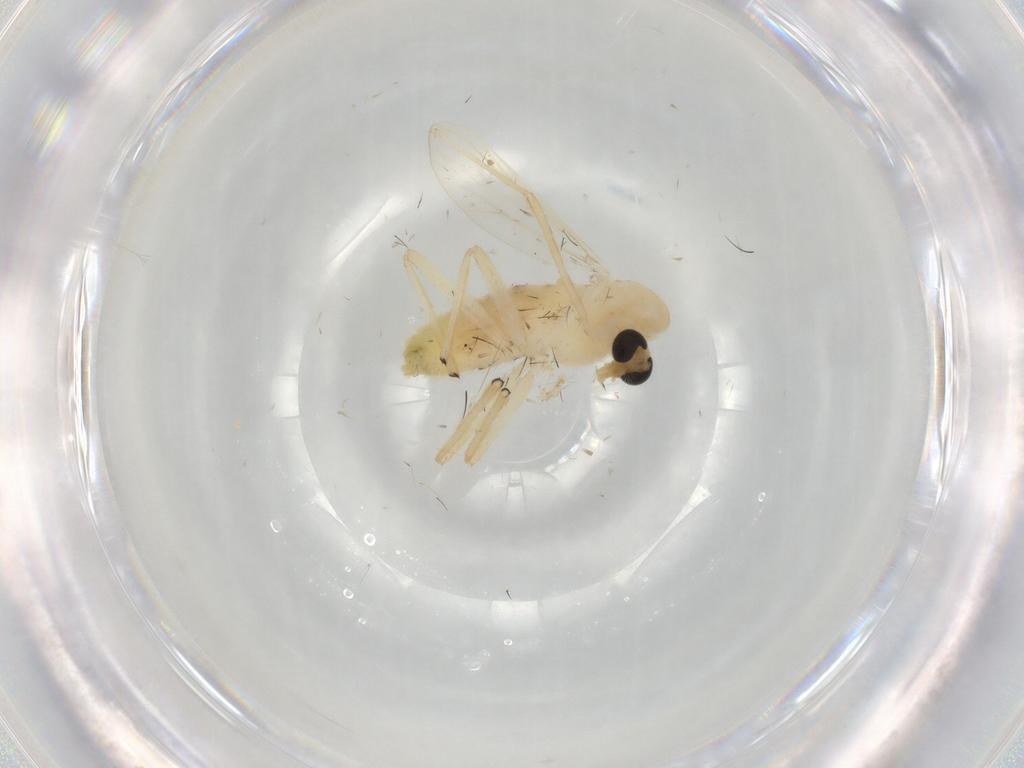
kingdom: Animalia
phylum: Arthropoda
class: Insecta
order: Diptera
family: Chironomidae
